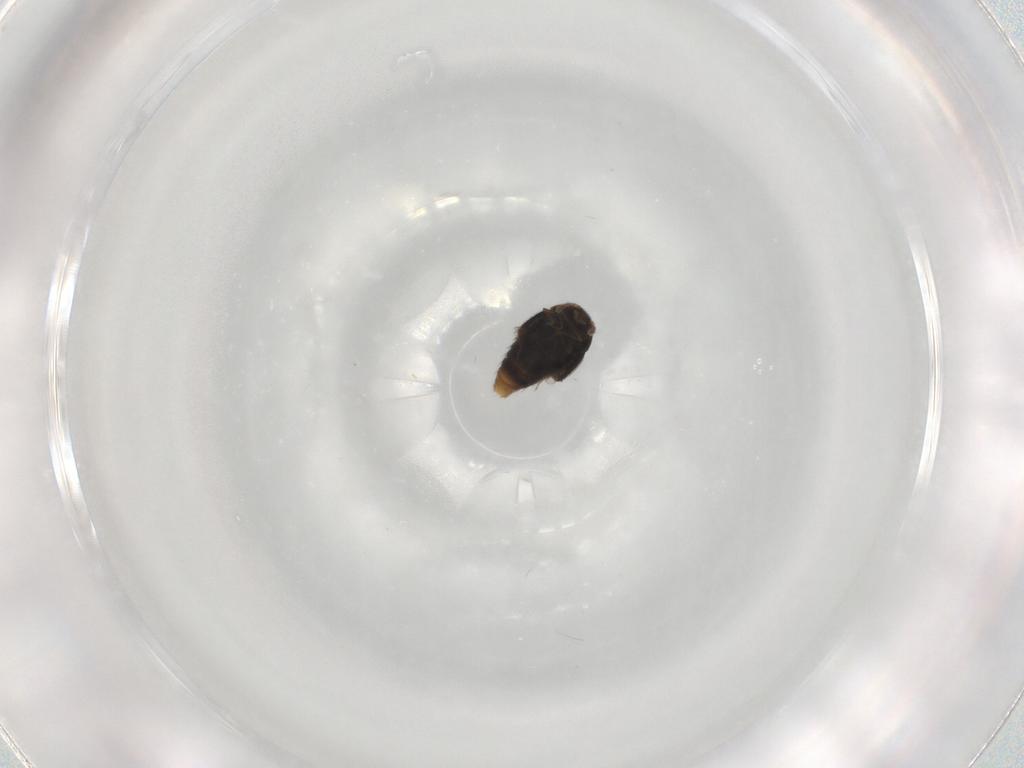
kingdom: Animalia
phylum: Arthropoda
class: Insecta
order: Coleoptera
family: Staphylinidae
